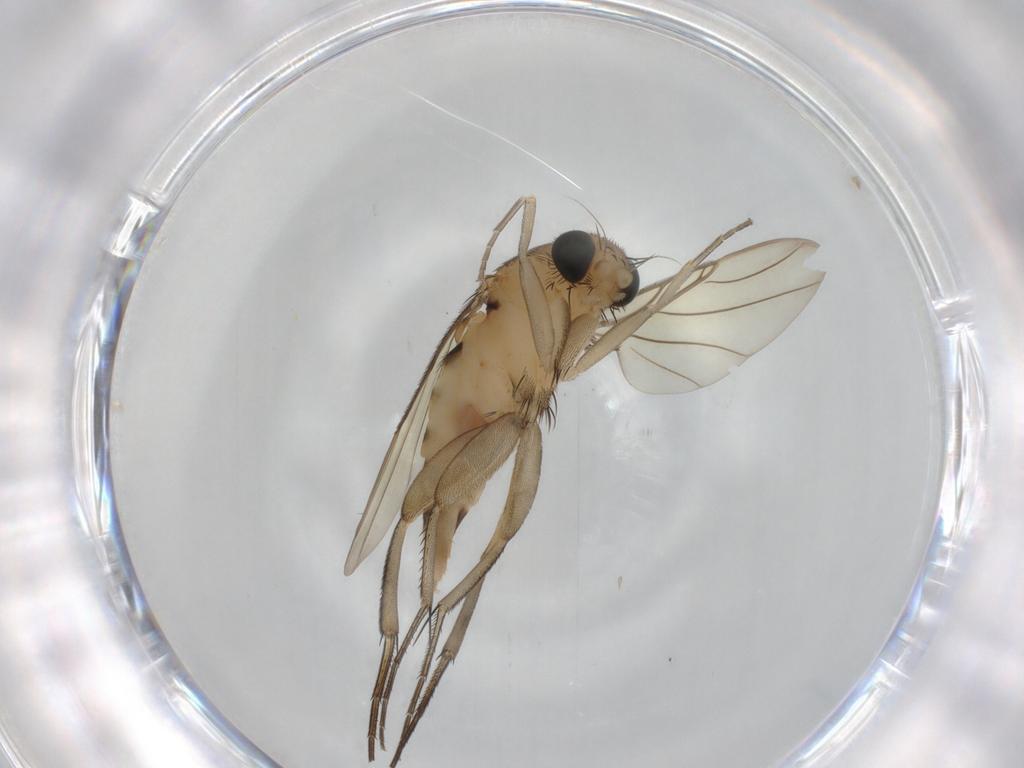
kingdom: Animalia
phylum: Arthropoda
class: Insecta
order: Diptera
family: Phoridae
